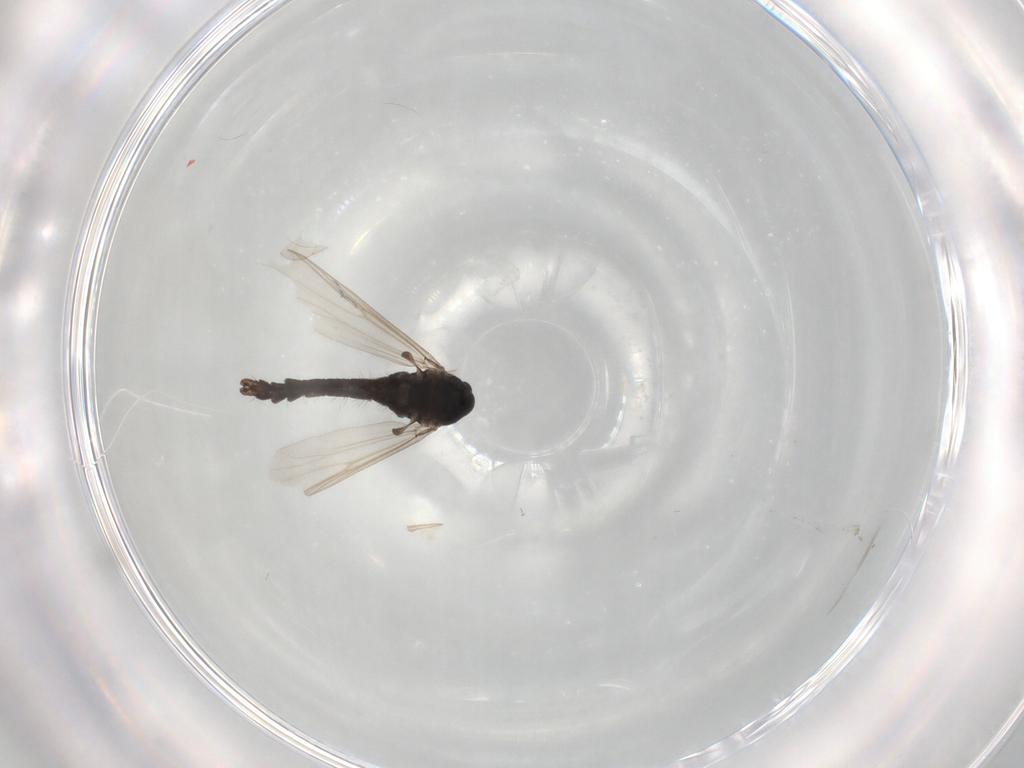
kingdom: Animalia
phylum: Arthropoda
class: Insecta
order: Diptera
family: Chironomidae
